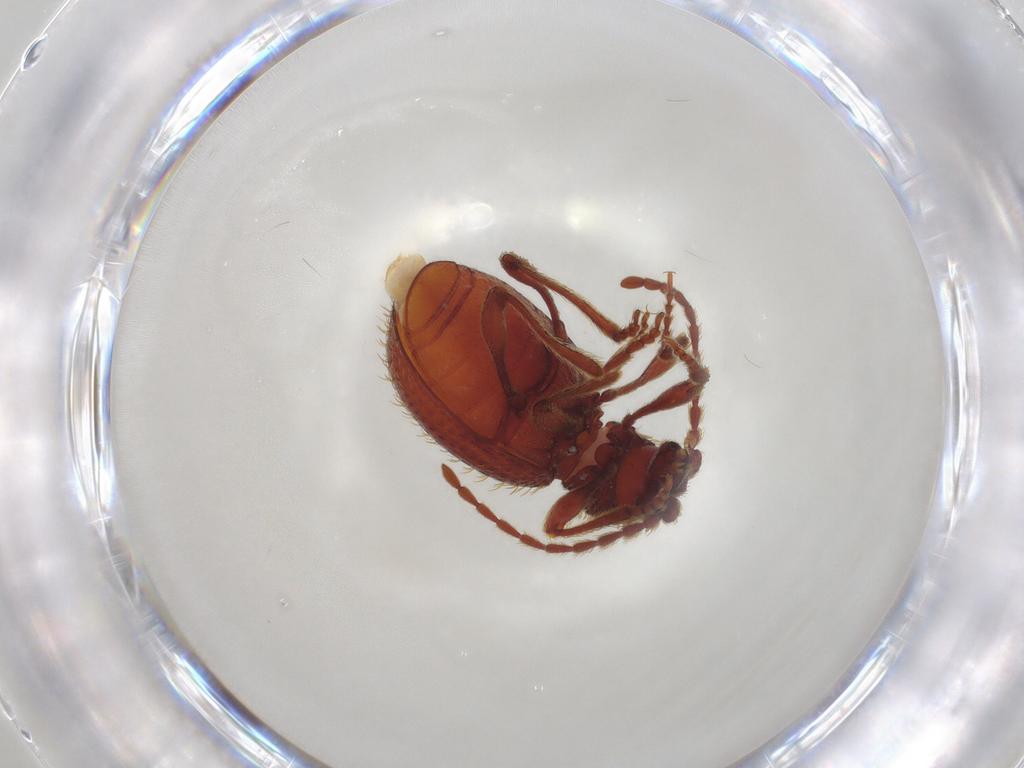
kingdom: Animalia
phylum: Arthropoda
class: Insecta
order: Coleoptera
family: Ptinidae
